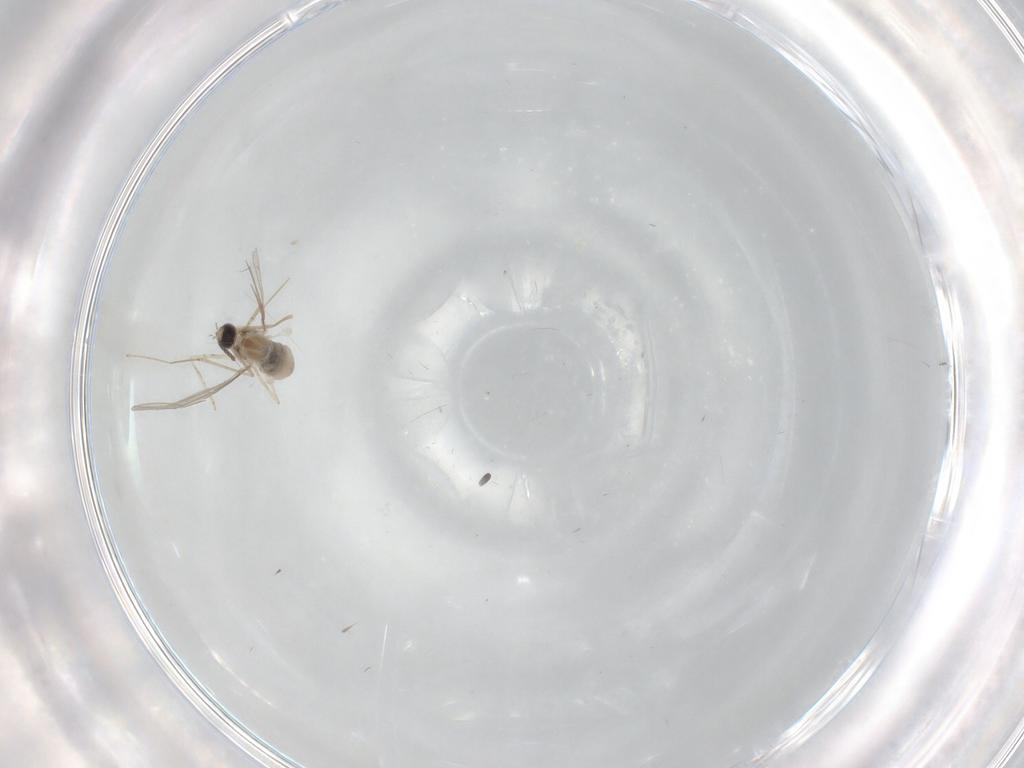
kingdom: Animalia
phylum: Arthropoda
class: Insecta
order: Diptera
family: Cecidomyiidae
